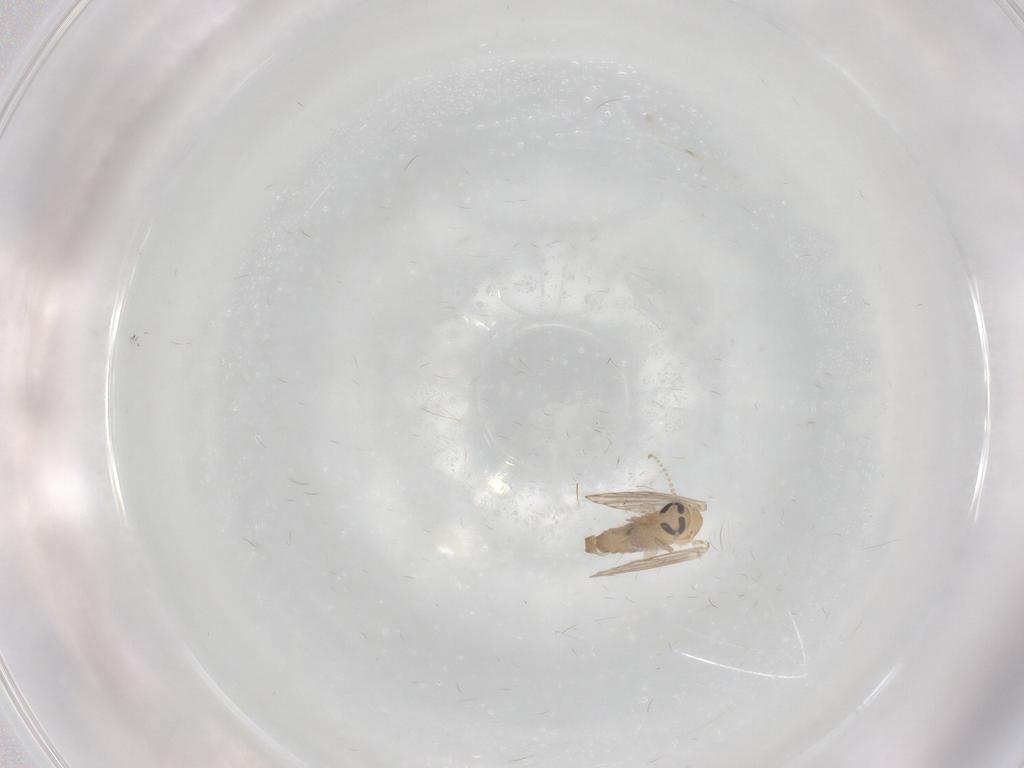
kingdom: Animalia
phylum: Arthropoda
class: Insecta
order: Diptera
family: Psychodidae
